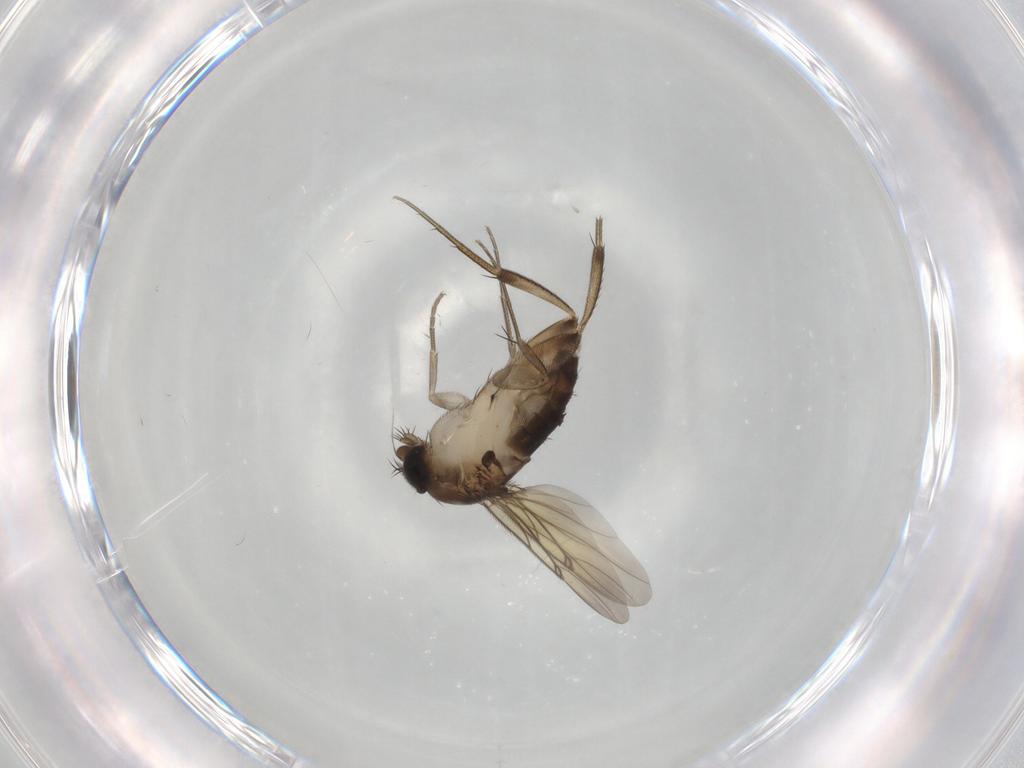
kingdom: Animalia
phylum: Arthropoda
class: Insecta
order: Diptera
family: Phoridae
